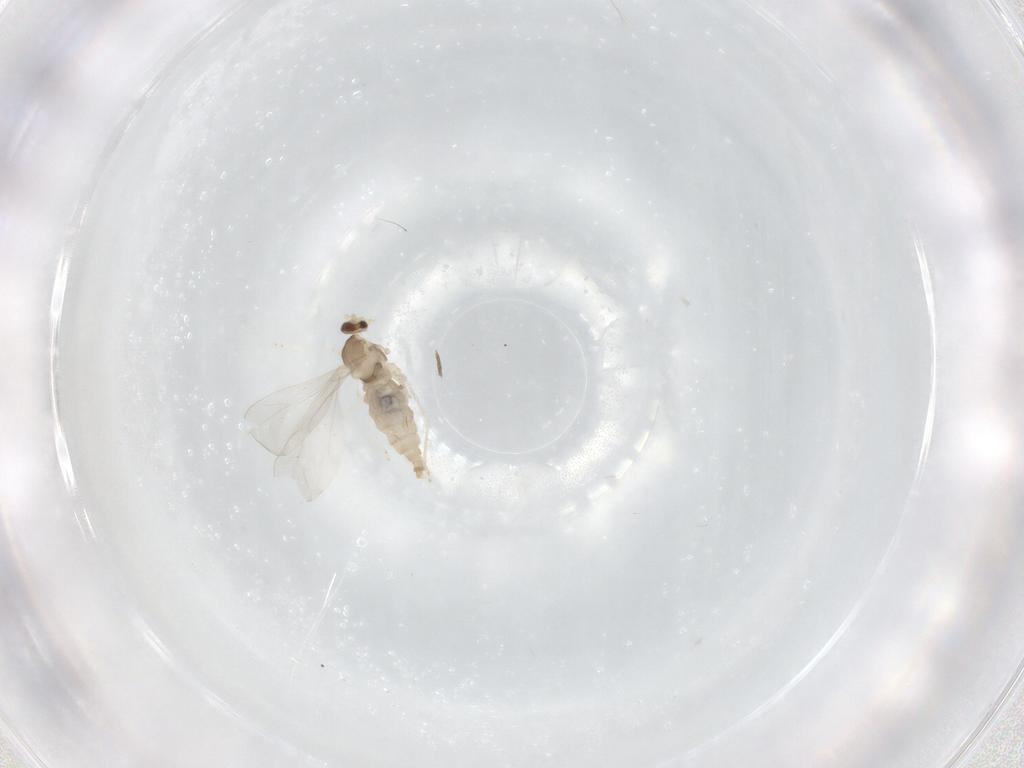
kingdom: Animalia
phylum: Arthropoda
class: Insecta
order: Diptera
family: Cecidomyiidae
